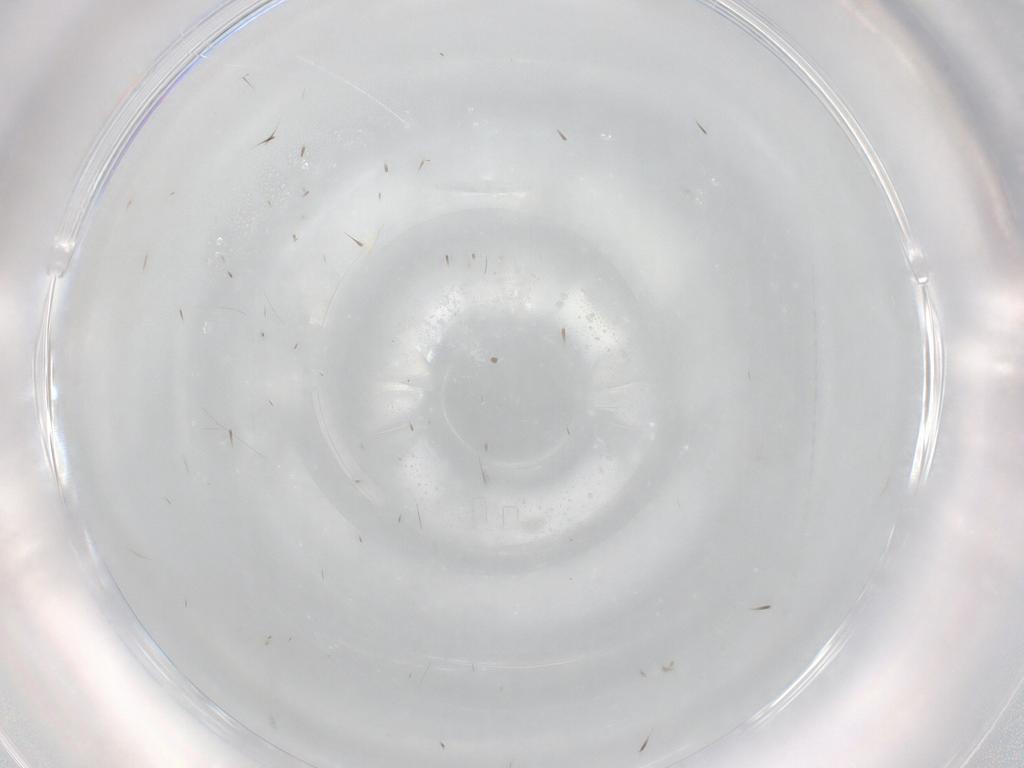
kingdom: Animalia
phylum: Arthropoda
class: Insecta
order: Diptera
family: Cecidomyiidae
